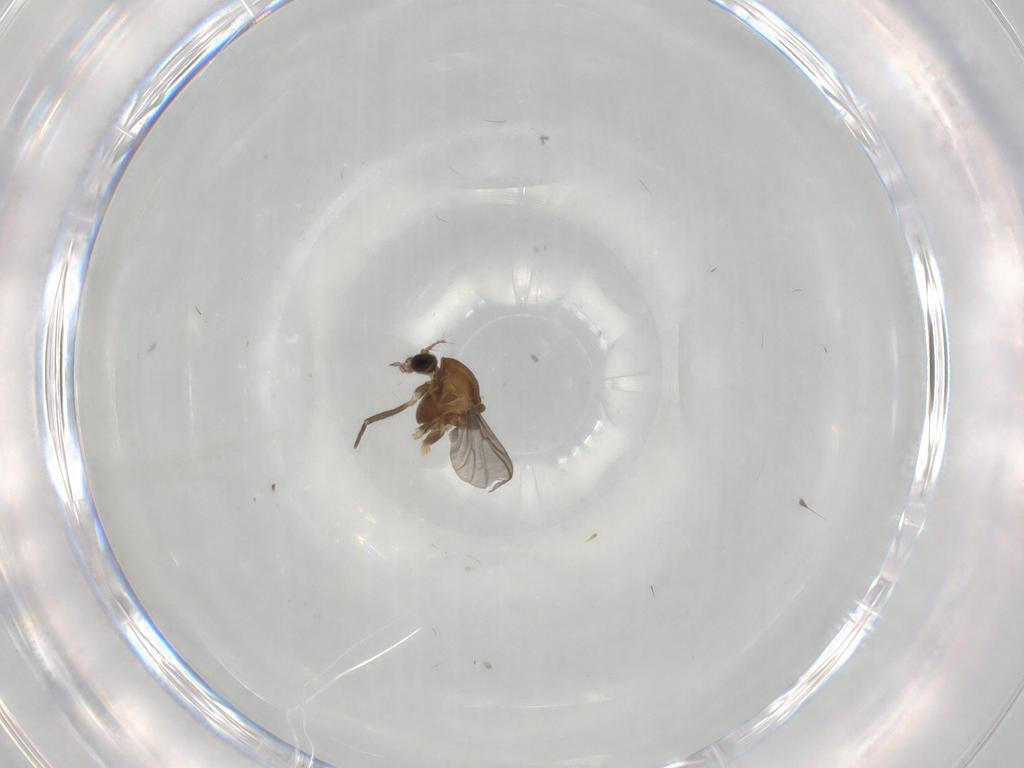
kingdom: Animalia
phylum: Arthropoda
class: Insecta
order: Diptera
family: Chironomidae
